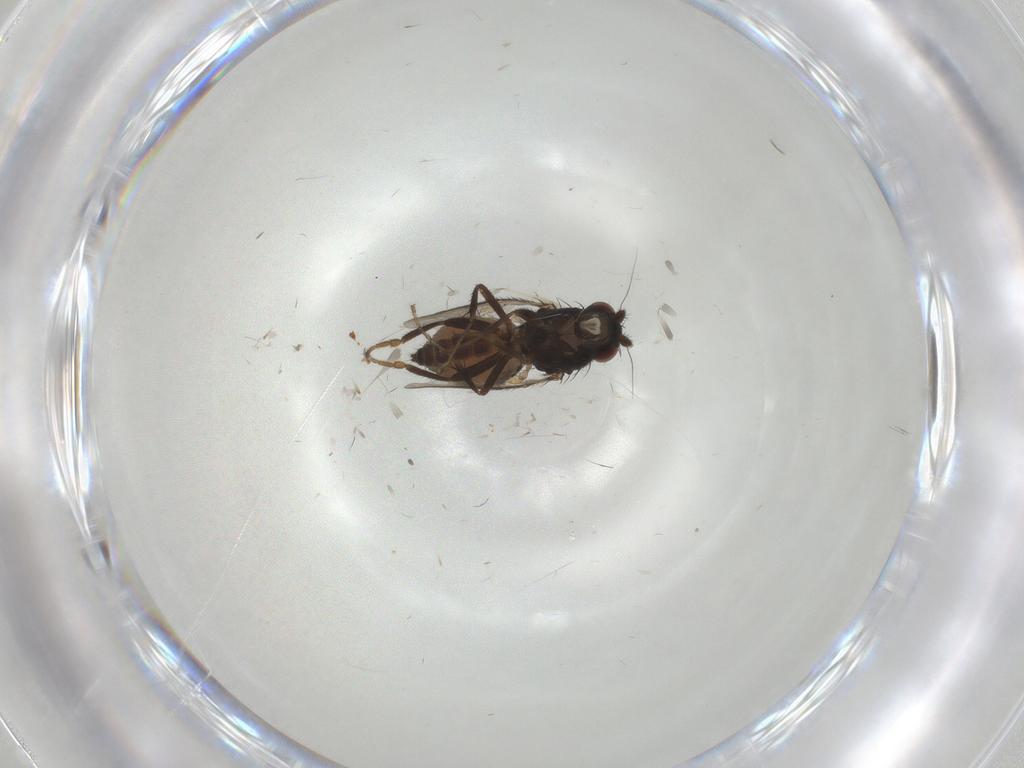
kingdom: Animalia
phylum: Arthropoda
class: Insecta
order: Diptera
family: Sphaeroceridae
